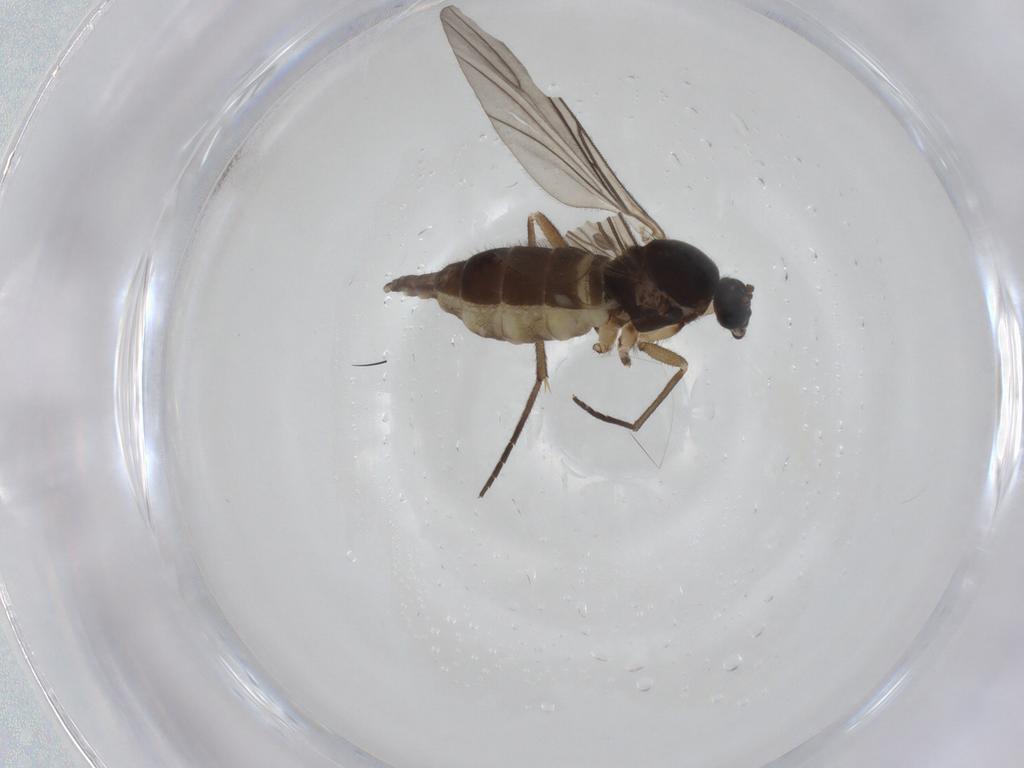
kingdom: Animalia
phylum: Arthropoda
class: Insecta
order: Diptera
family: Sciaridae
